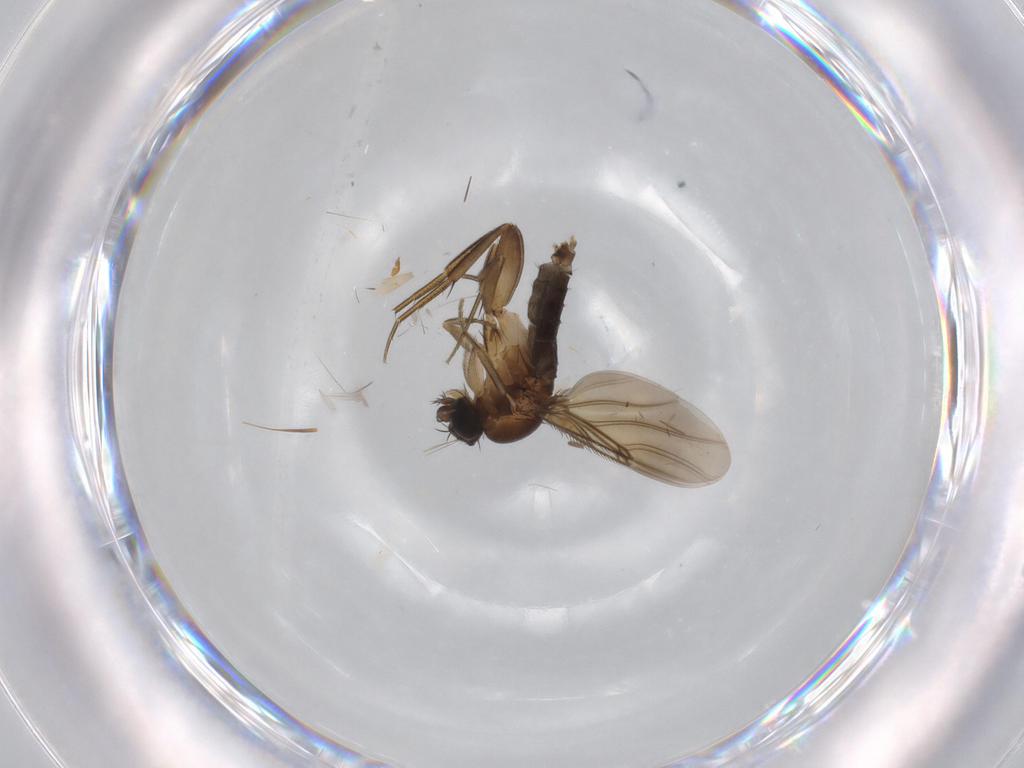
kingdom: Animalia
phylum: Arthropoda
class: Insecta
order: Diptera
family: Phoridae
